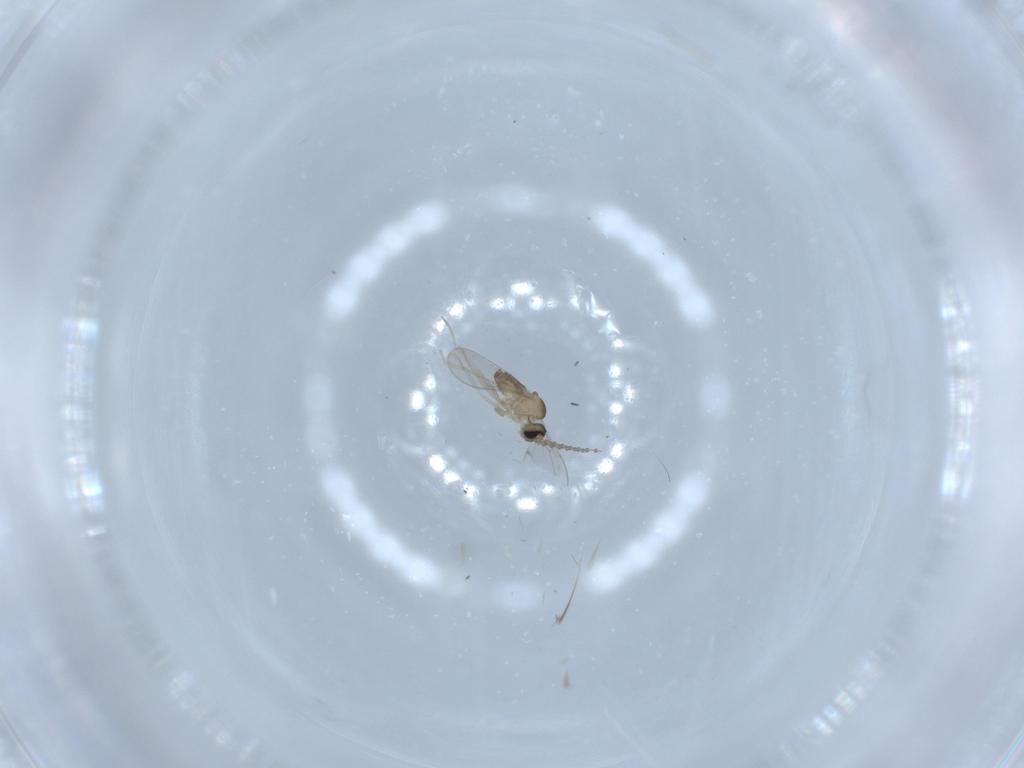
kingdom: Animalia
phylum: Arthropoda
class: Insecta
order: Diptera
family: Cecidomyiidae
